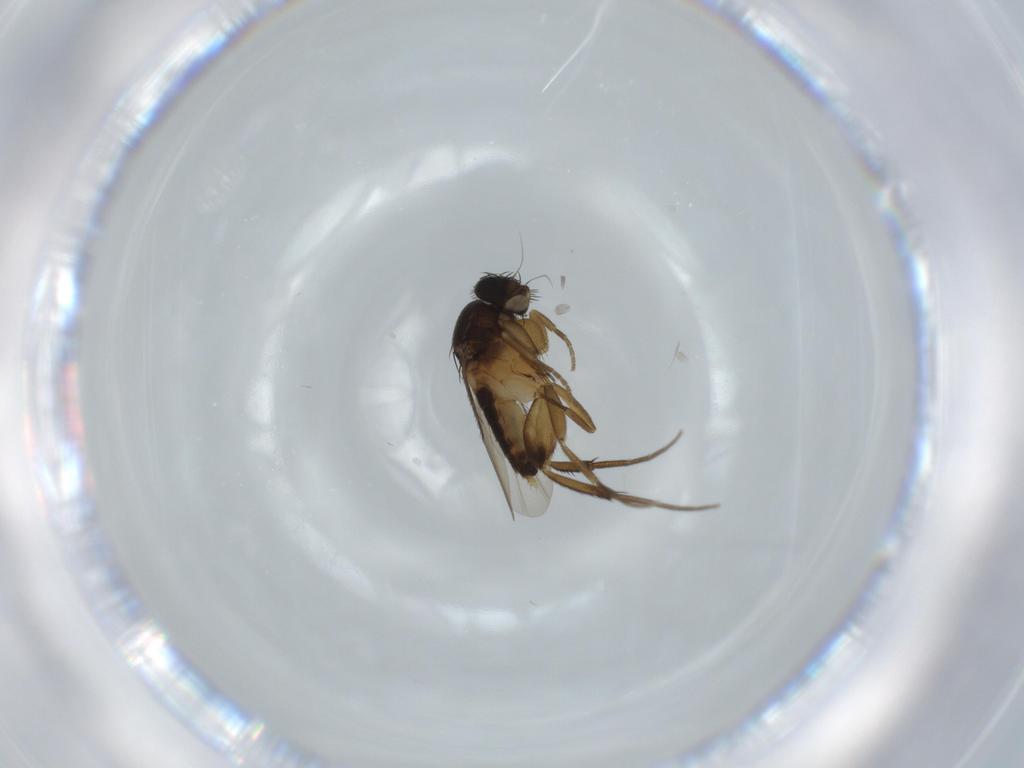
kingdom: Animalia
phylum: Arthropoda
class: Insecta
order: Diptera
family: Phoridae
